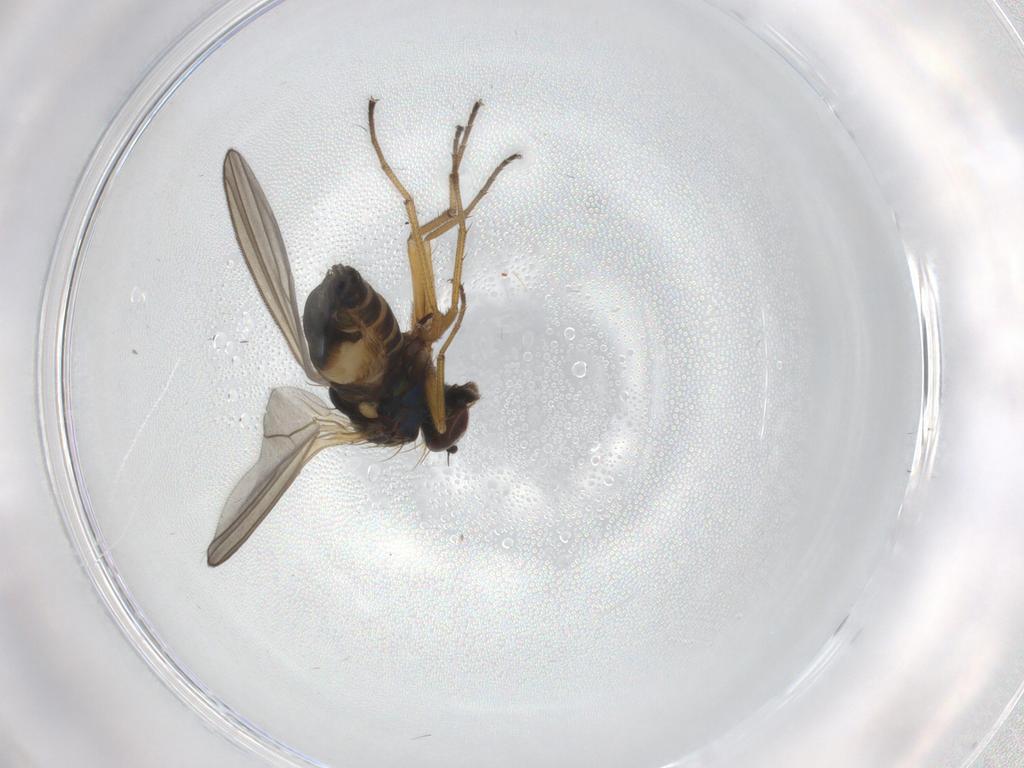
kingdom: Animalia
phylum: Arthropoda
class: Insecta
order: Diptera
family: Dolichopodidae
